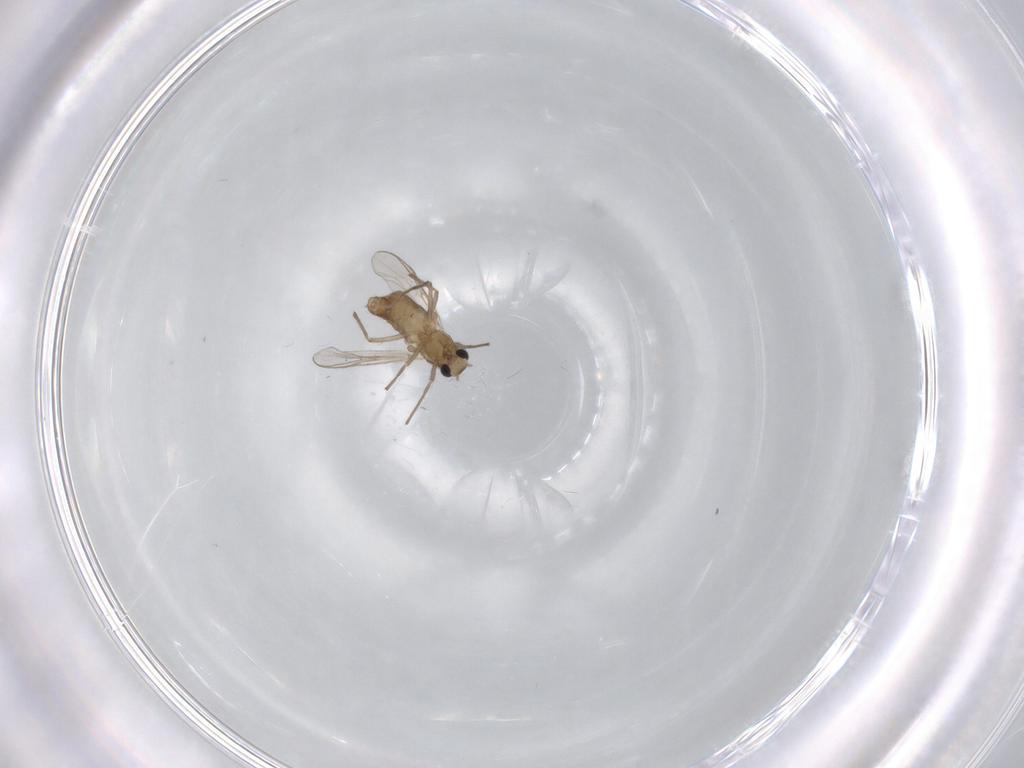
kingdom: Animalia
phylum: Arthropoda
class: Insecta
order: Diptera
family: Chironomidae
